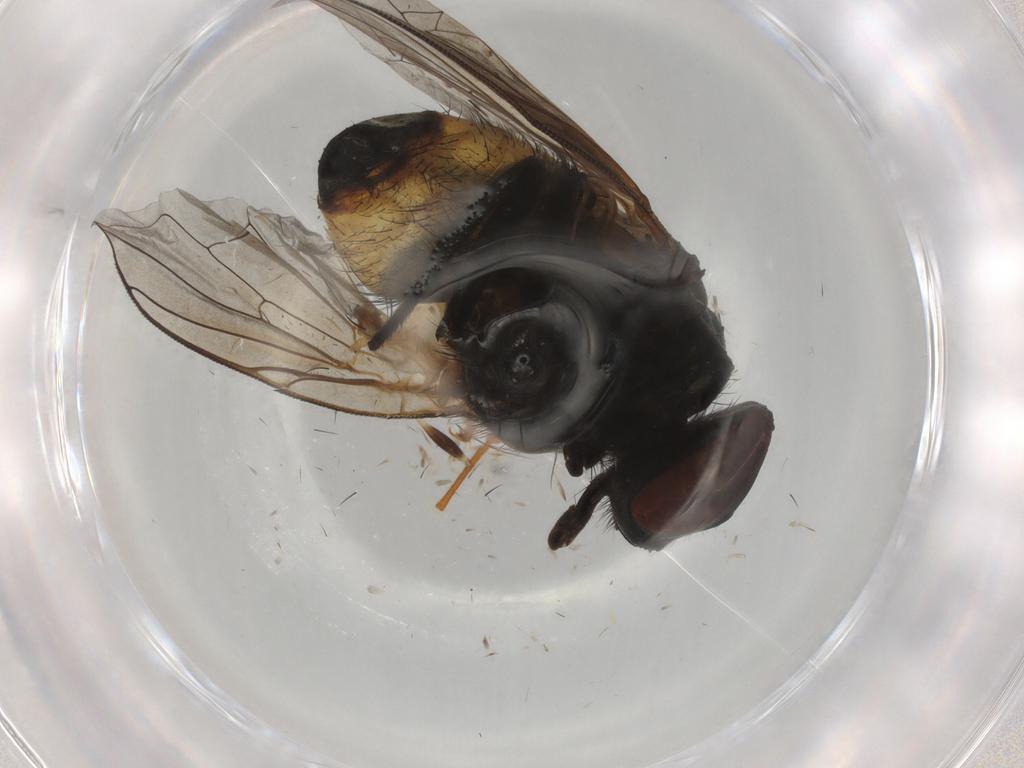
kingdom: Animalia
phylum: Arthropoda
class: Insecta
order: Diptera
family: Muscidae
